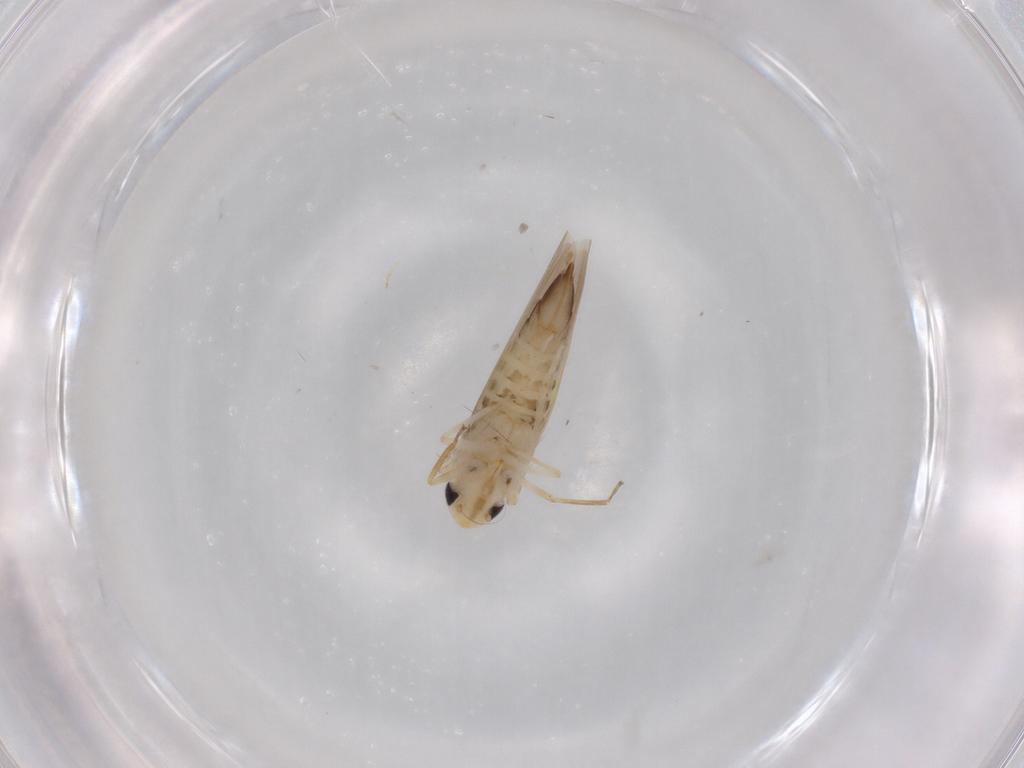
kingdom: Animalia
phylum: Arthropoda
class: Insecta
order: Hemiptera
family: Cicadellidae
